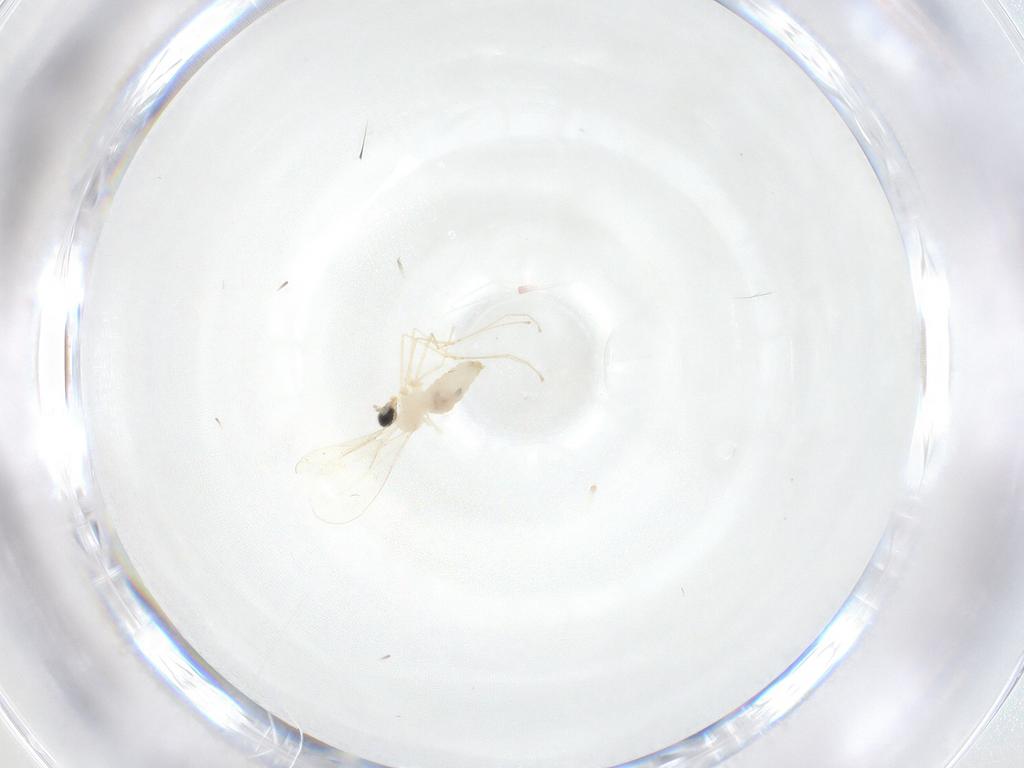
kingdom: Animalia
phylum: Arthropoda
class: Insecta
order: Diptera
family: Cecidomyiidae
